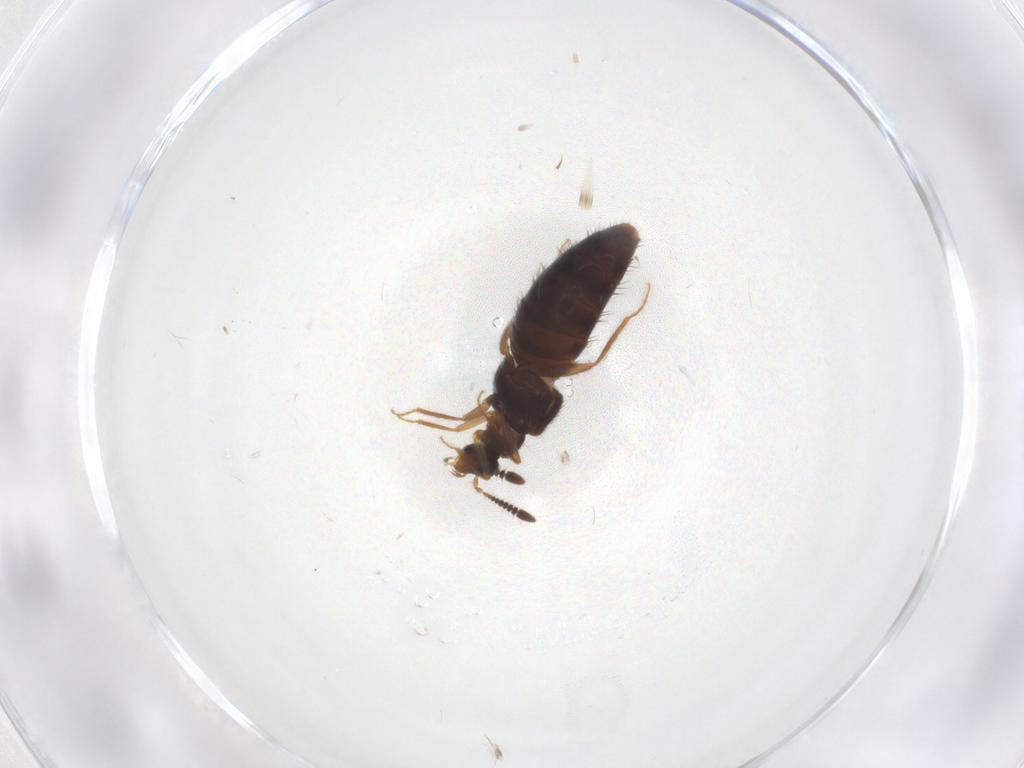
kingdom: Animalia
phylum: Arthropoda
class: Insecta
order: Coleoptera
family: Staphylinidae
